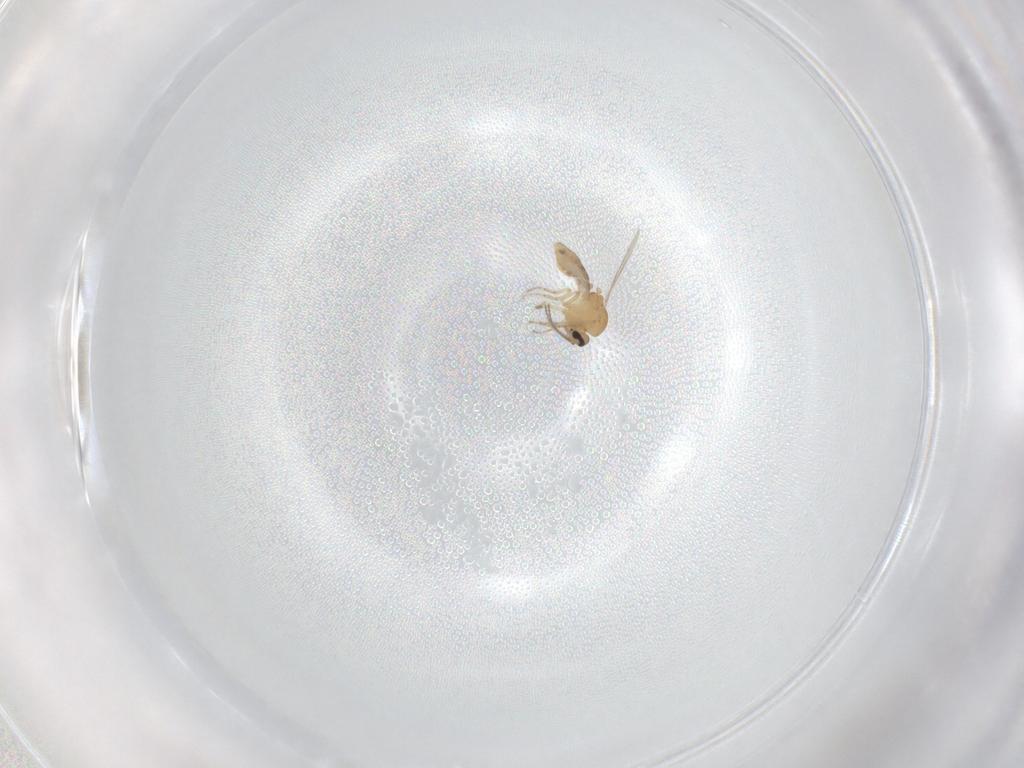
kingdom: Animalia
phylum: Arthropoda
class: Insecta
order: Diptera
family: Ceratopogonidae
